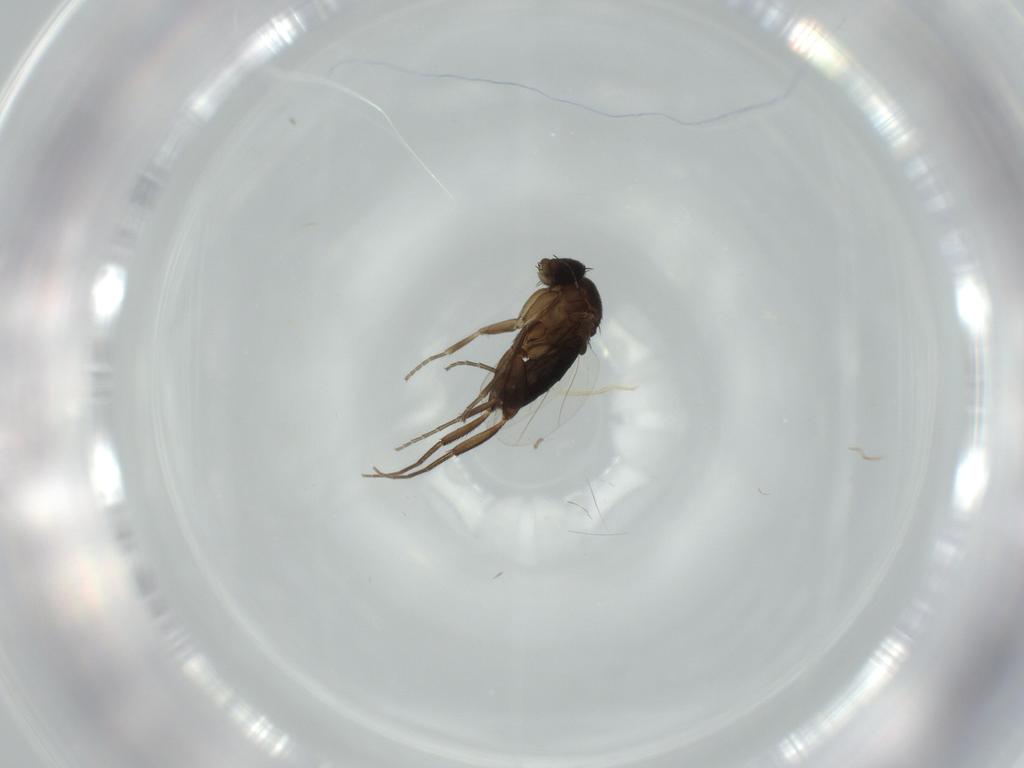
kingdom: Animalia
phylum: Arthropoda
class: Insecta
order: Diptera
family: Phoridae
